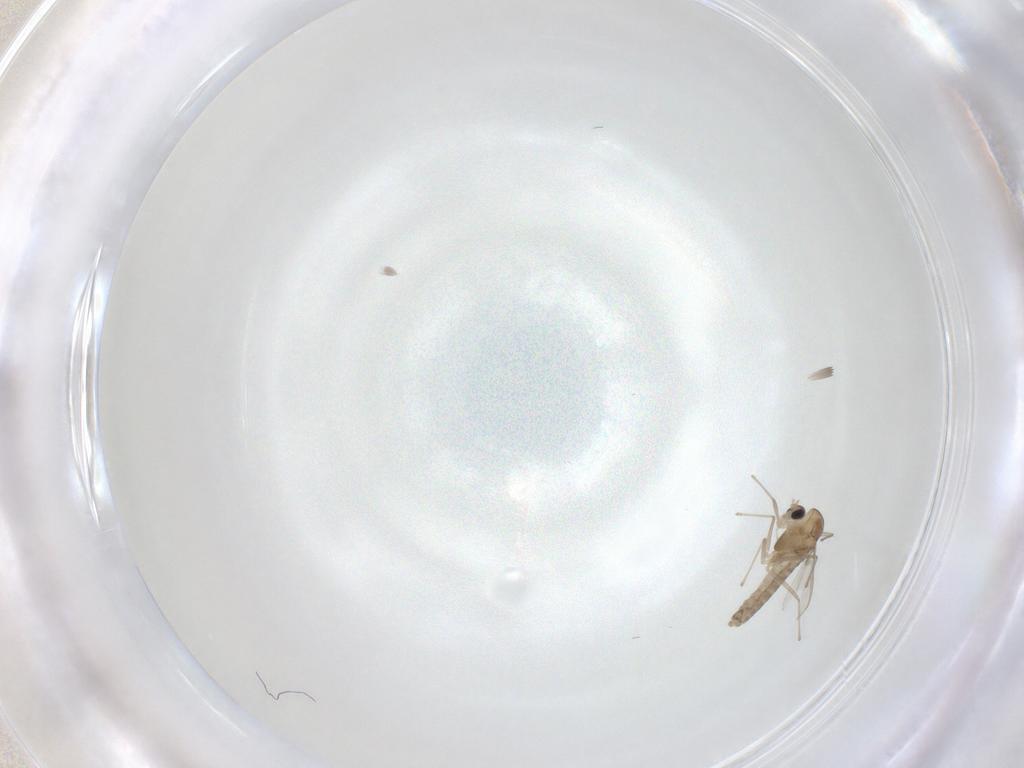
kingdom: Animalia
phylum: Arthropoda
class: Insecta
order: Diptera
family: Chironomidae
